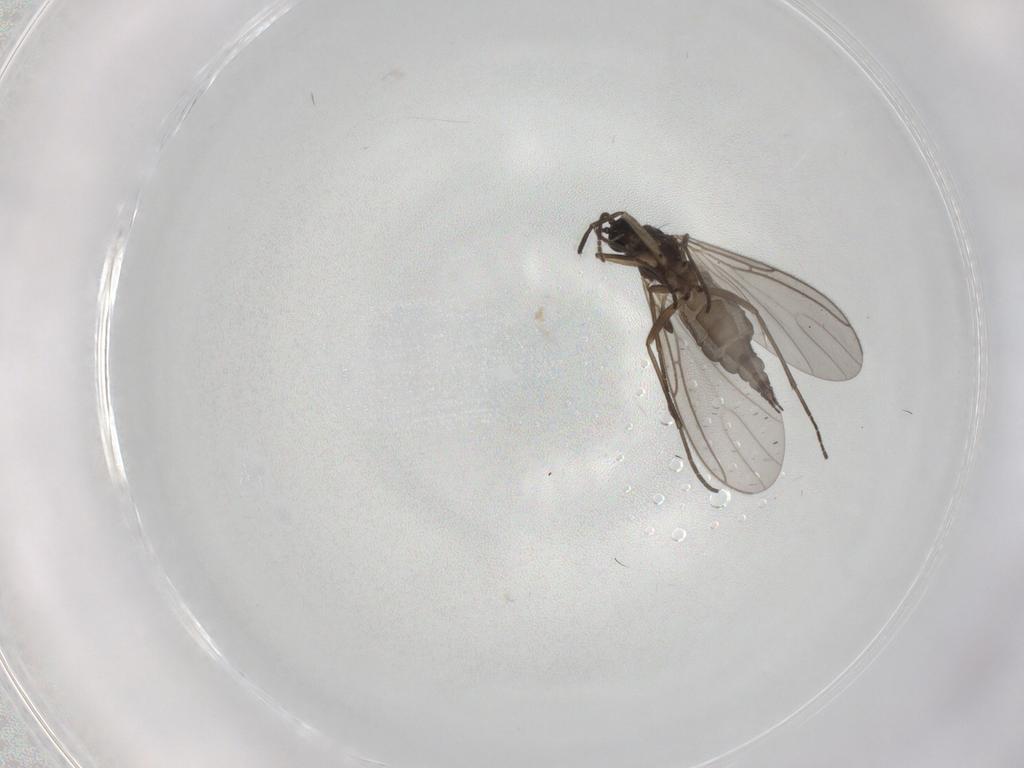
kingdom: Animalia
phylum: Arthropoda
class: Insecta
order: Diptera
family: Sciaridae
